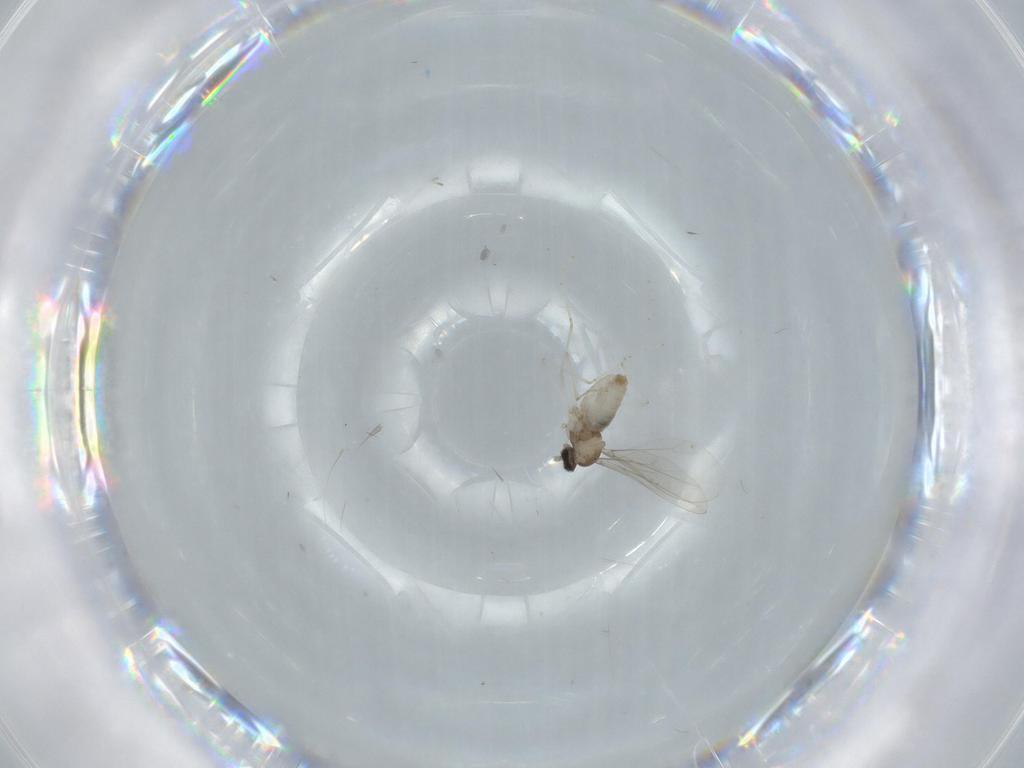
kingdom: Animalia
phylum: Arthropoda
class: Insecta
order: Diptera
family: Cecidomyiidae
